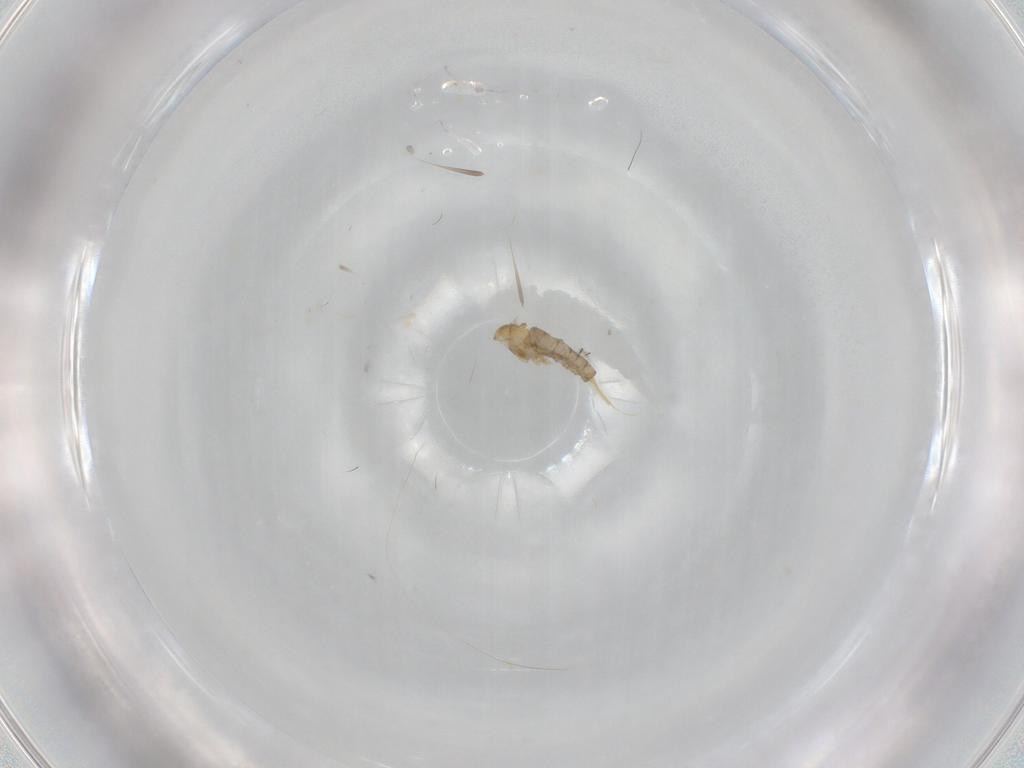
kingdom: Animalia
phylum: Arthropoda
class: Insecta
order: Diptera
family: Cecidomyiidae
